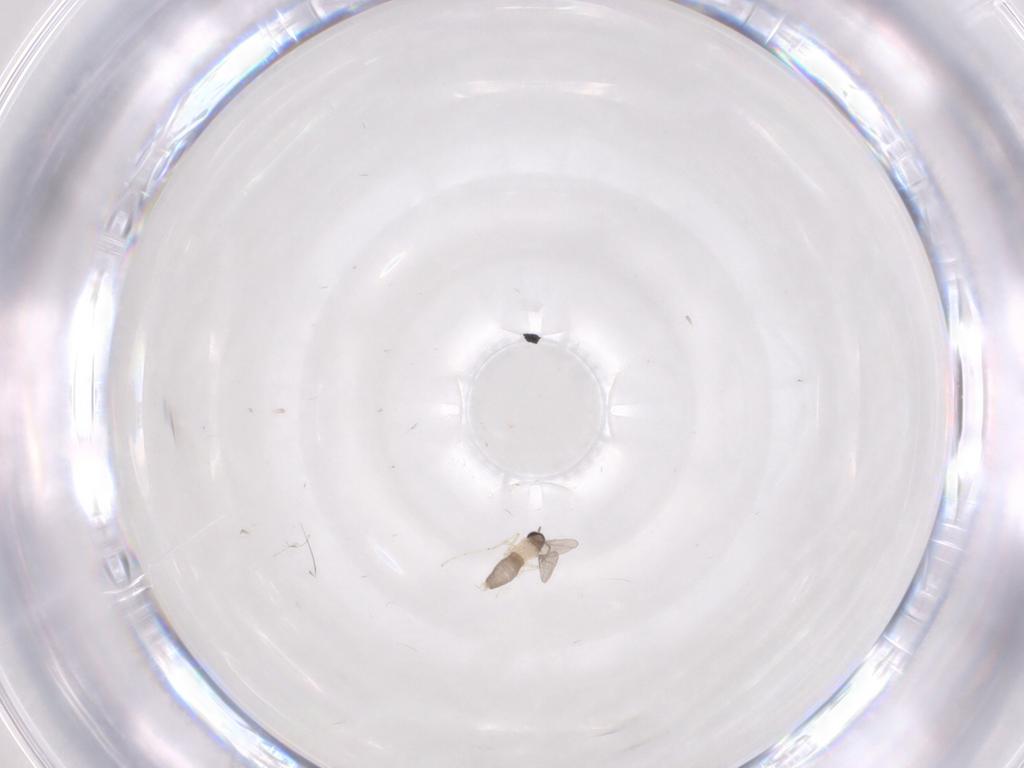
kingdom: Animalia
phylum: Arthropoda
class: Insecta
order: Diptera
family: Cecidomyiidae
